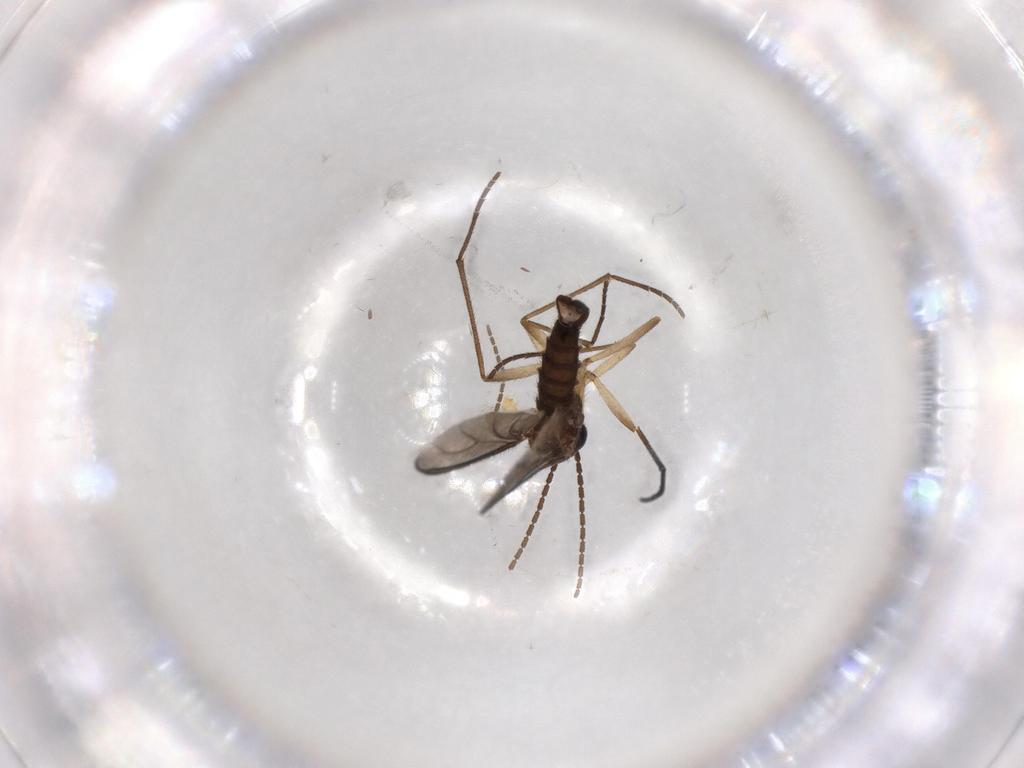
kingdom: Animalia
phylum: Arthropoda
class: Insecta
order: Diptera
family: Sciaridae
